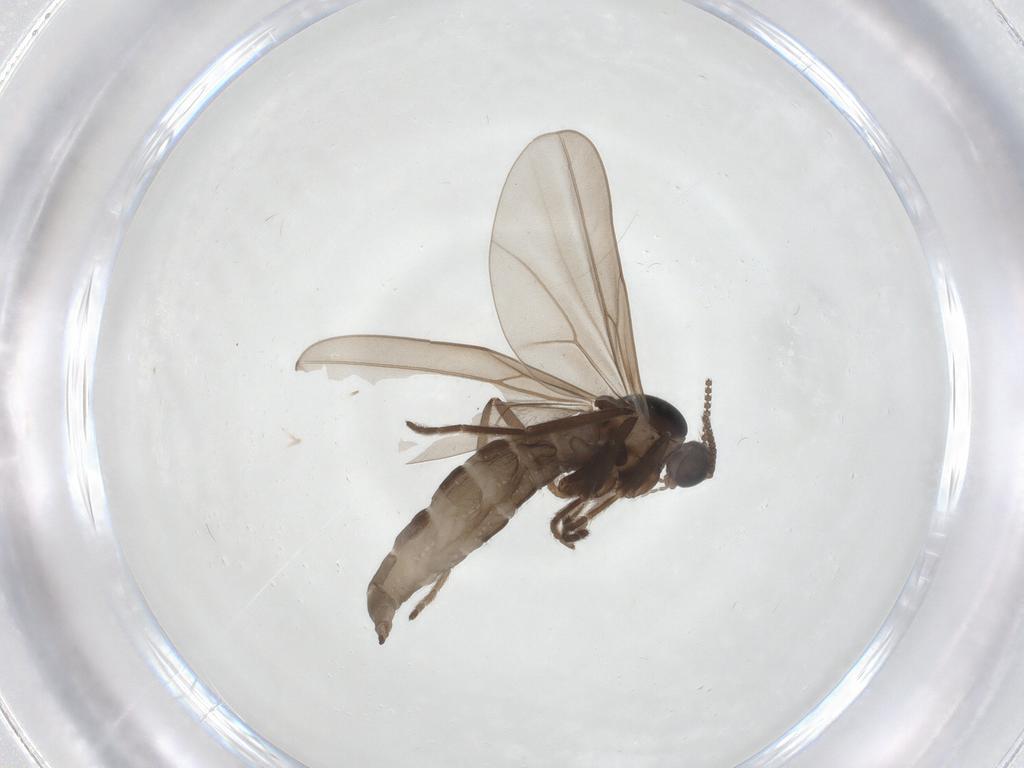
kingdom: Animalia
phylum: Arthropoda
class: Insecta
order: Diptera
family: Cecidomyiidae
